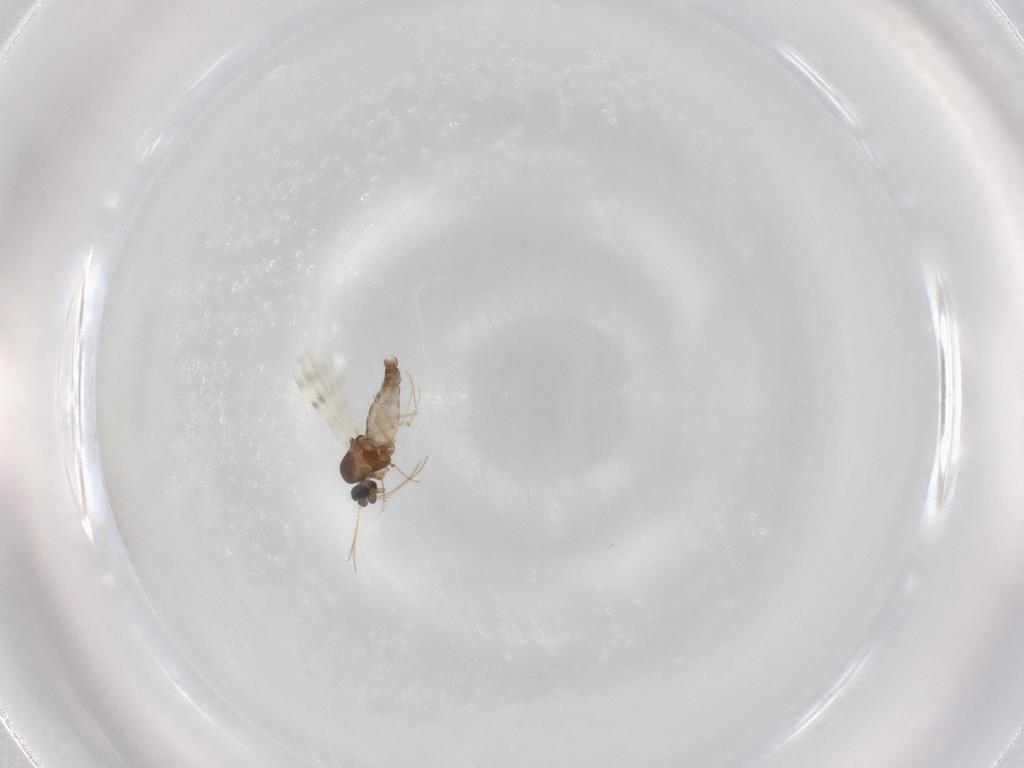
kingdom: Animalia
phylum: Arthropoda
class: Insecta
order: Diptera
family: Ceratopogonidae
